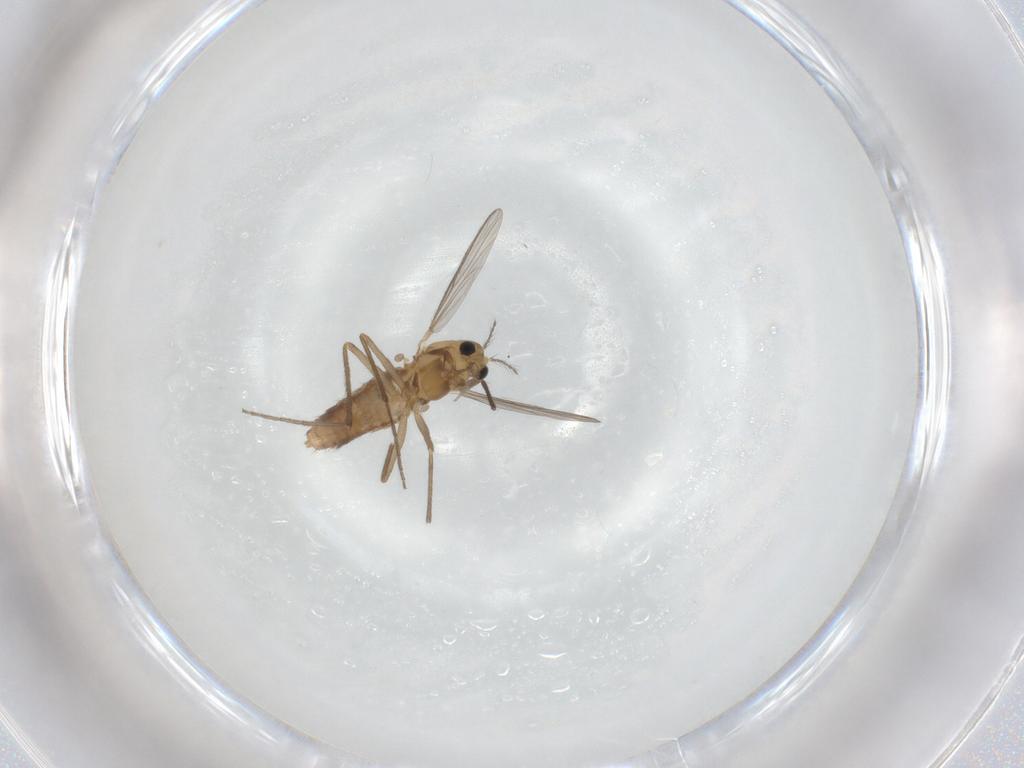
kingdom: Animalia
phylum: Arthropoda
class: Insecta
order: Diptera
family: Chironomidae
